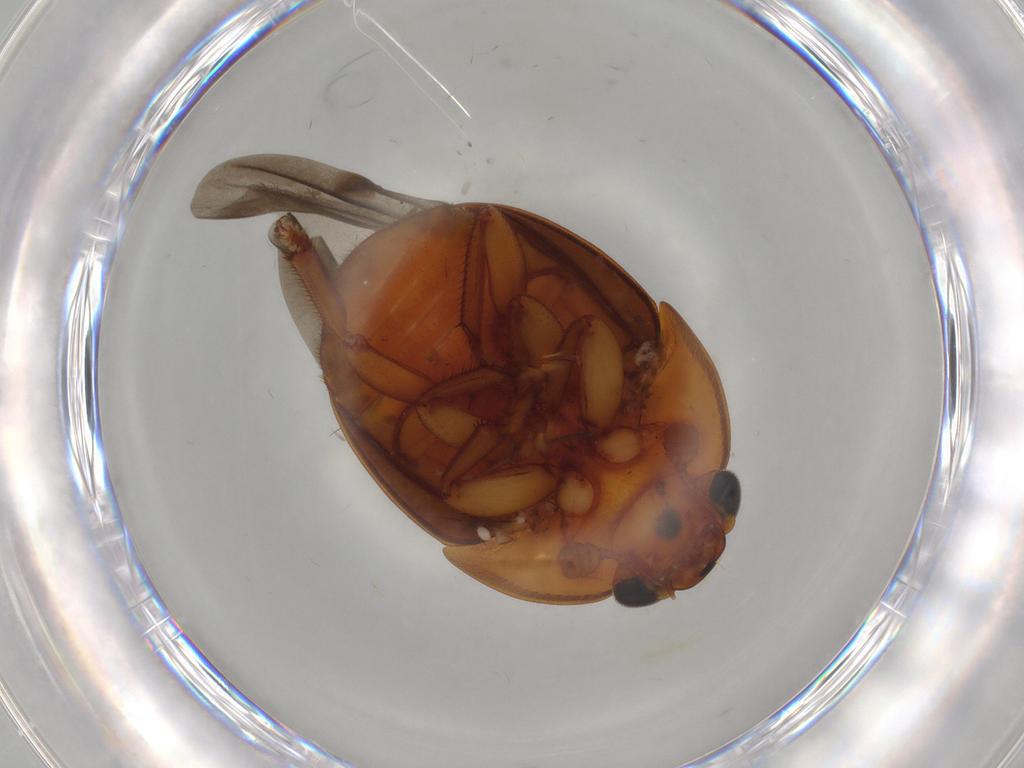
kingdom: Animalia
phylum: Arthropoda
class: Insecta
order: Coleoptera
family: Nitidulidae
